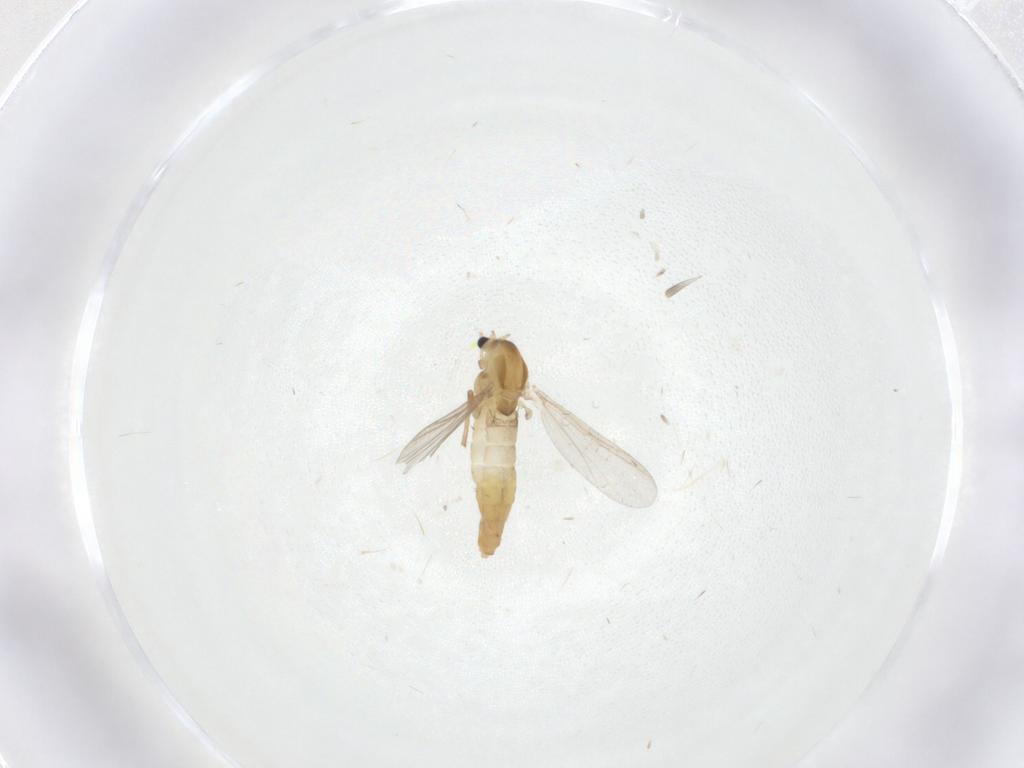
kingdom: Animalia
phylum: Arthropoda
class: Insecta
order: Diptera
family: Chironomidae
